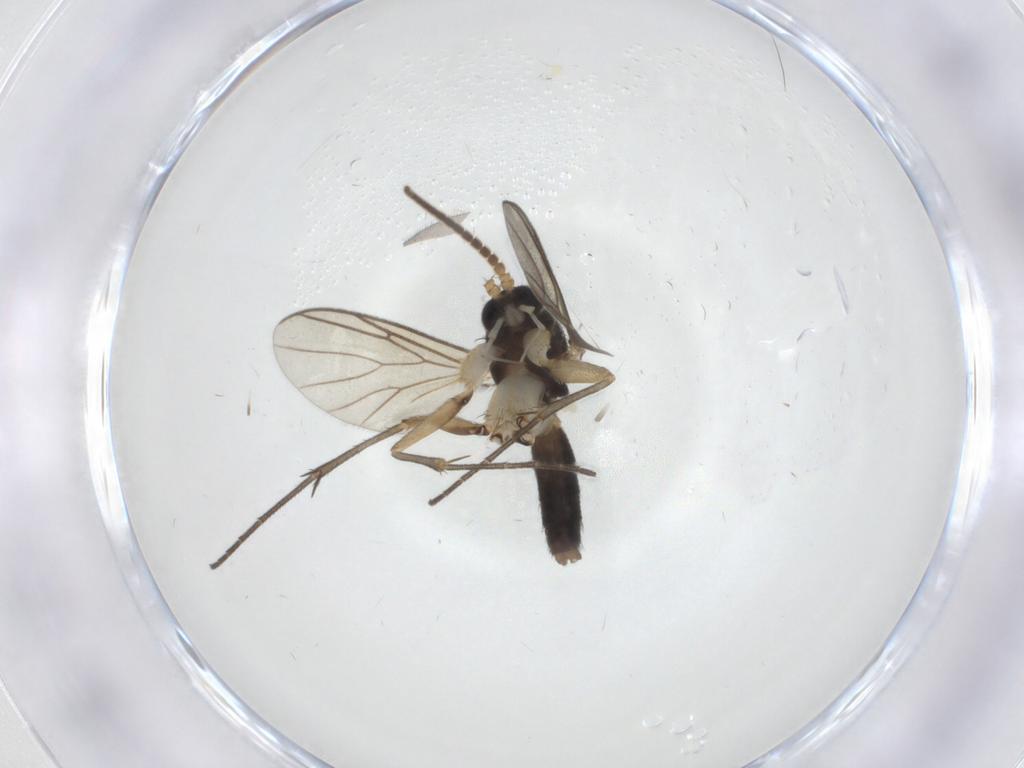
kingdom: Animalia
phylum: Arthropoda
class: Insecta
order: Diptera
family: Mycetophilidae
